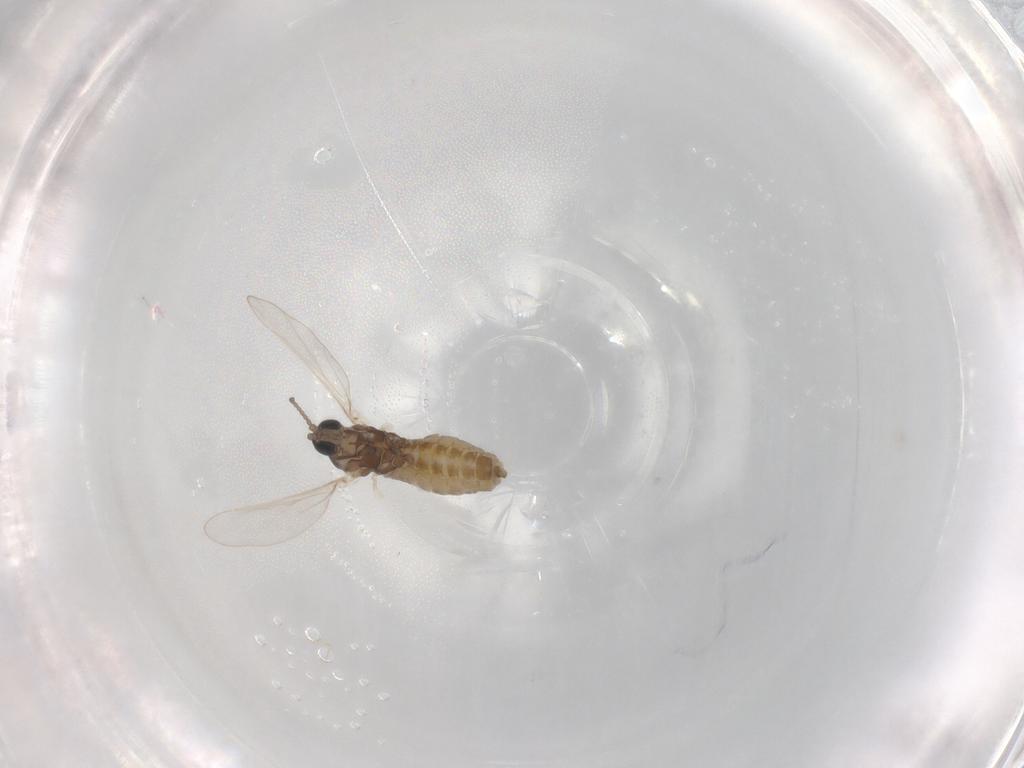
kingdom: Animalia
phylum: Arthropoda
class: Insecta
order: Diptera
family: Cecidomyiidae
